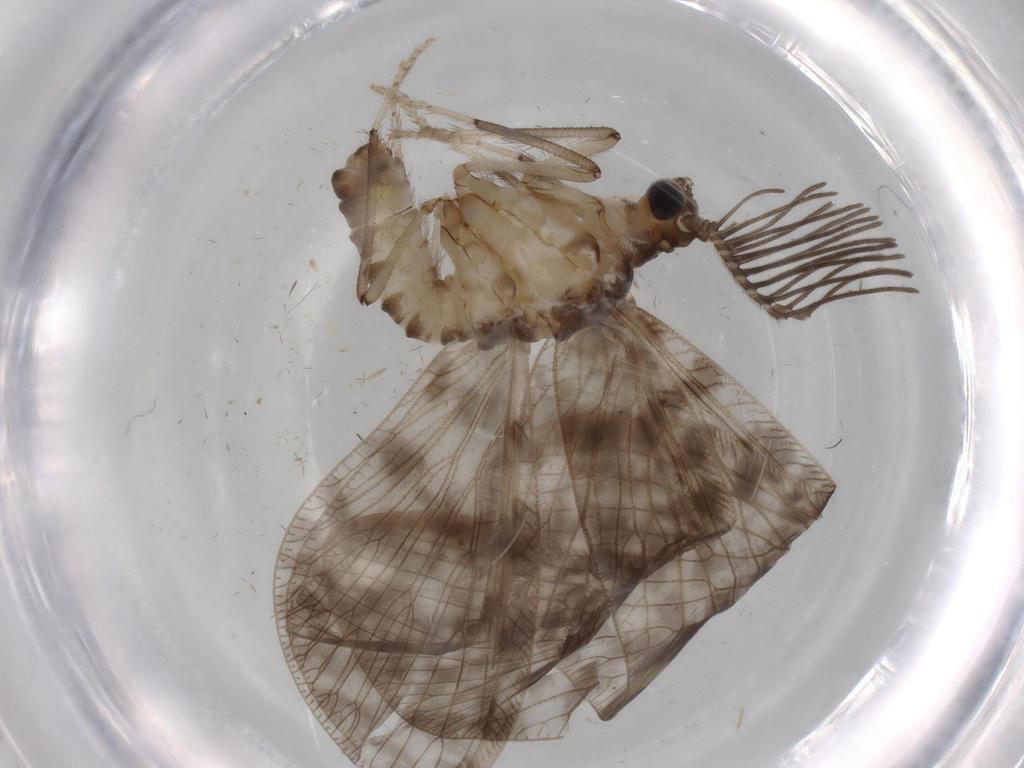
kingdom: Animalia
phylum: Arthropoda
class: Insecta
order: Neuroptera
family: Dilaridae
